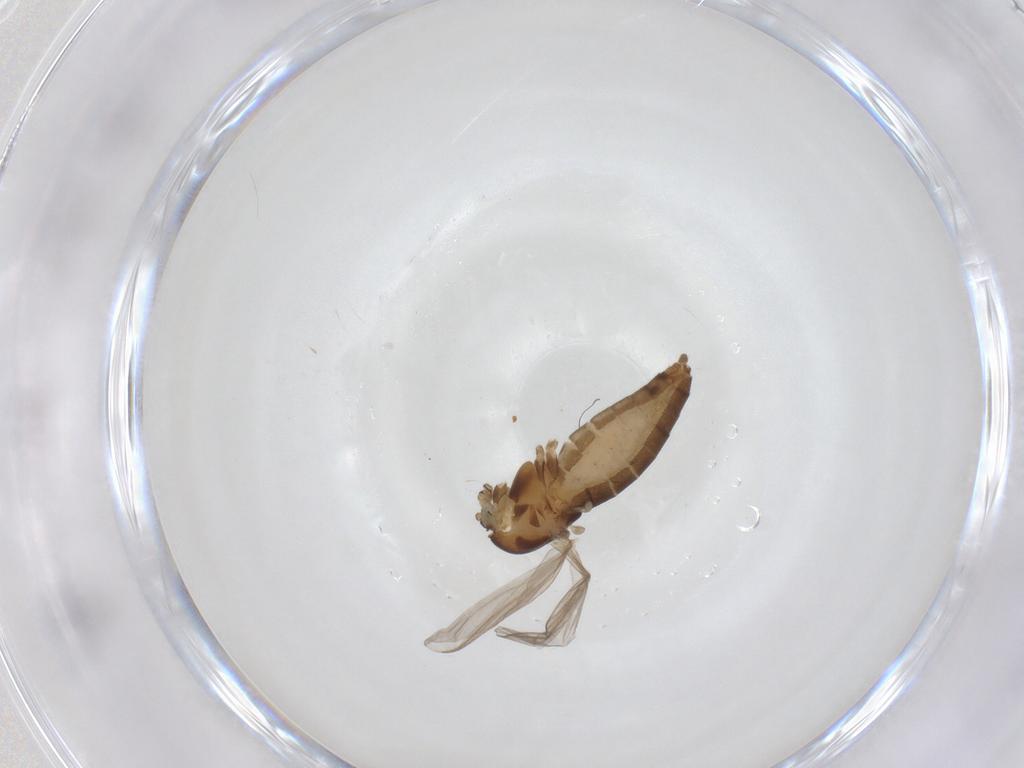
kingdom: Animalia
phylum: Arthropoda
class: Insecta
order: Diptera
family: Chironomidae
